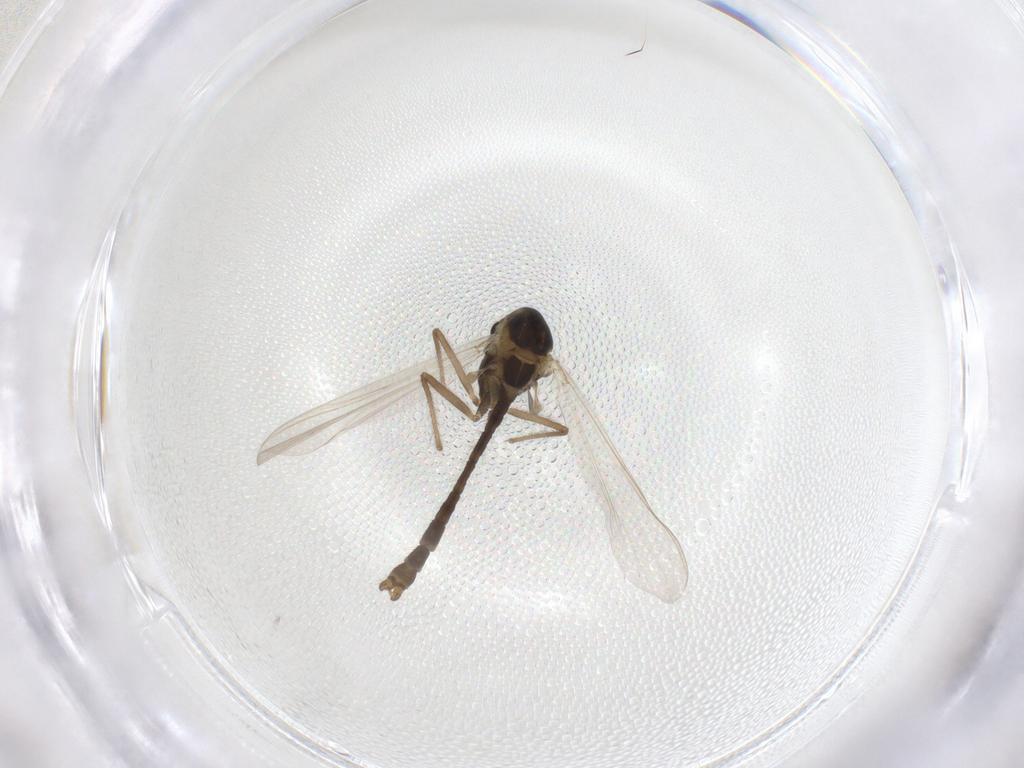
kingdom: Animalia
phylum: Arthropoda
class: Insecta
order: Diptera
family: Chironomidae
